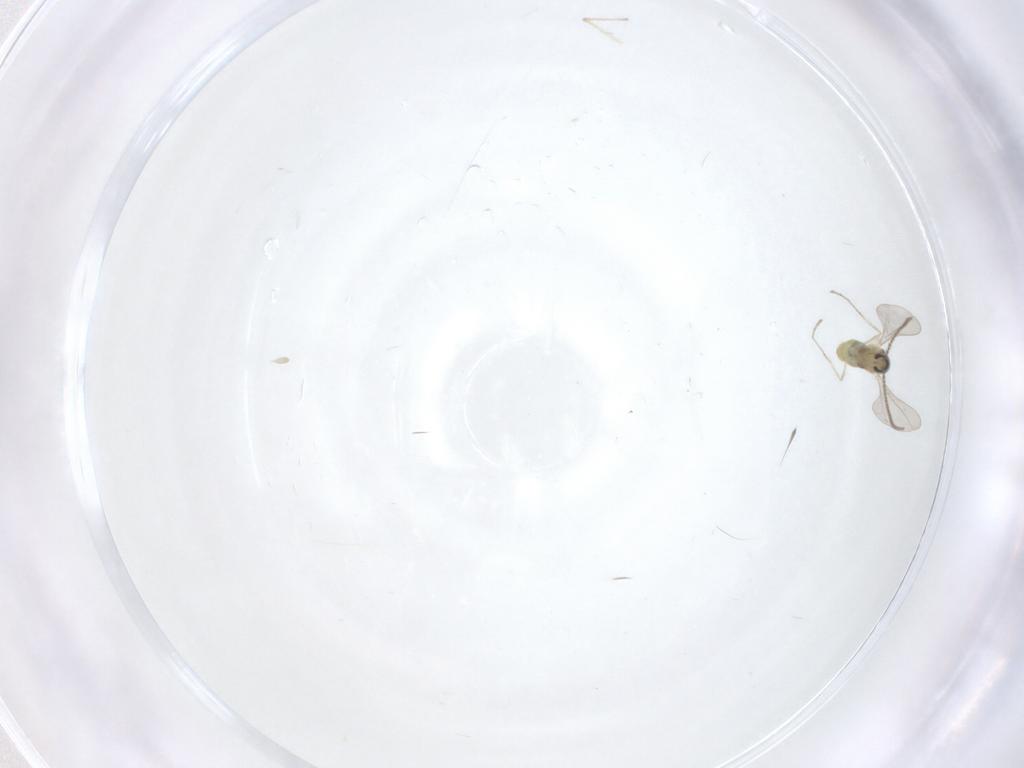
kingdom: Animalia
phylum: Arthropoda
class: Insecta
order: Diptera
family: Cecidomyiidae
